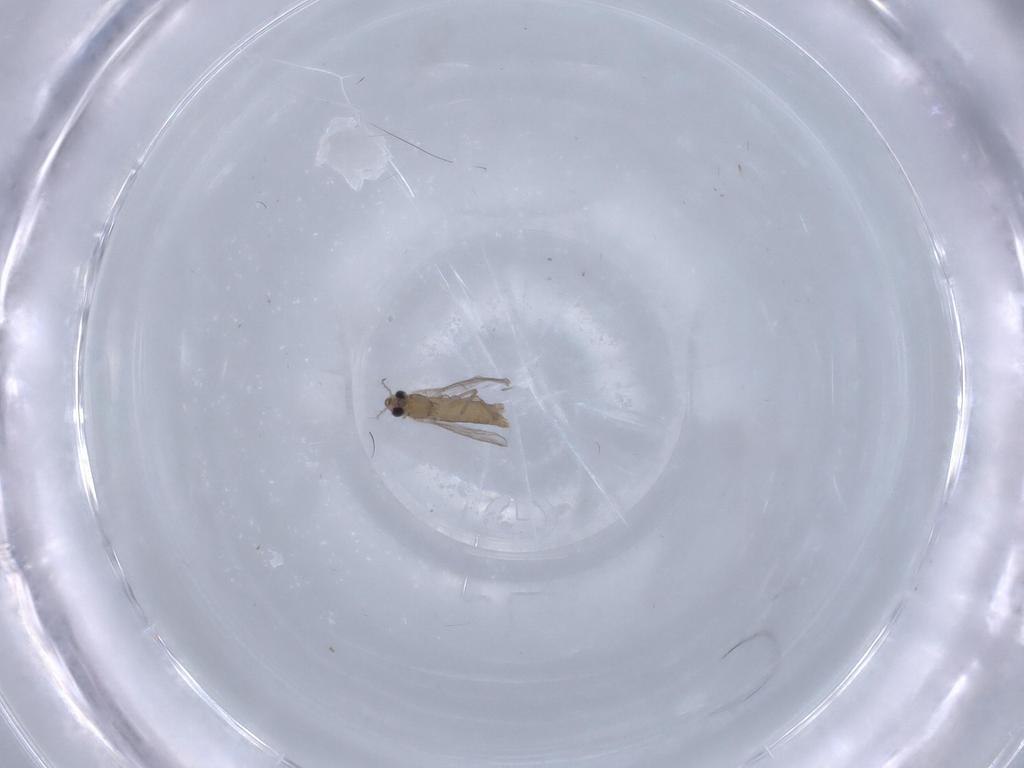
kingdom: Animalia
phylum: Arthropoda
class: Insecta
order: Diptera
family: Chironomidae
